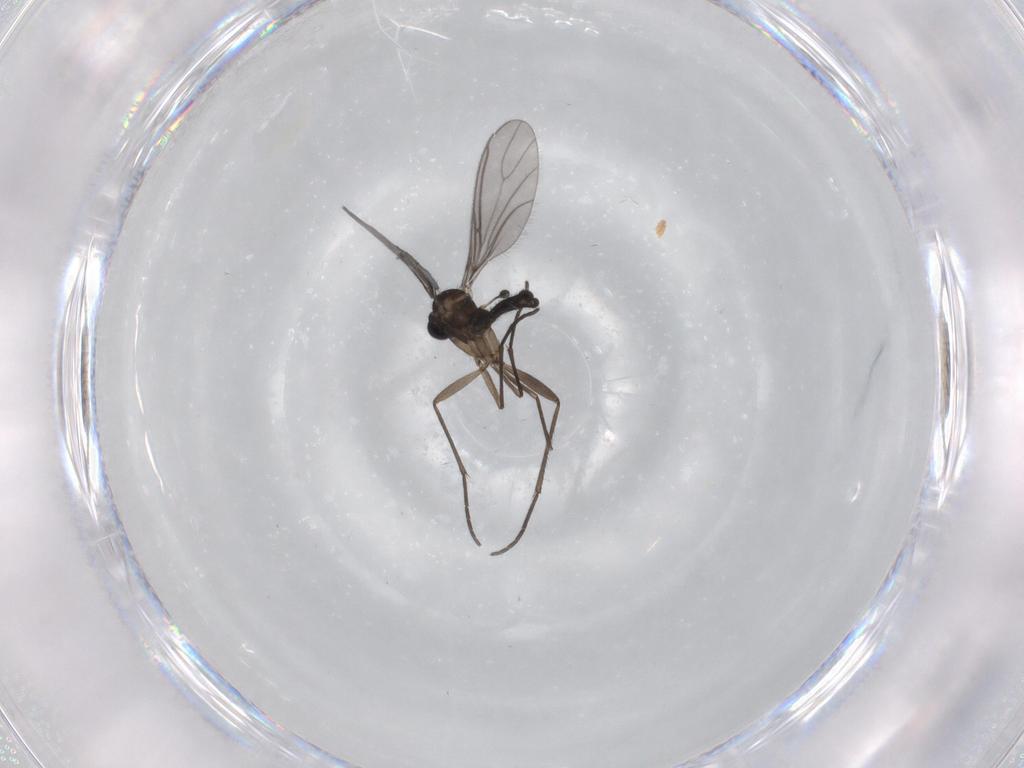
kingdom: Animalia
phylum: Arthropoda
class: Insecta
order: Diptera
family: Sciaridae
